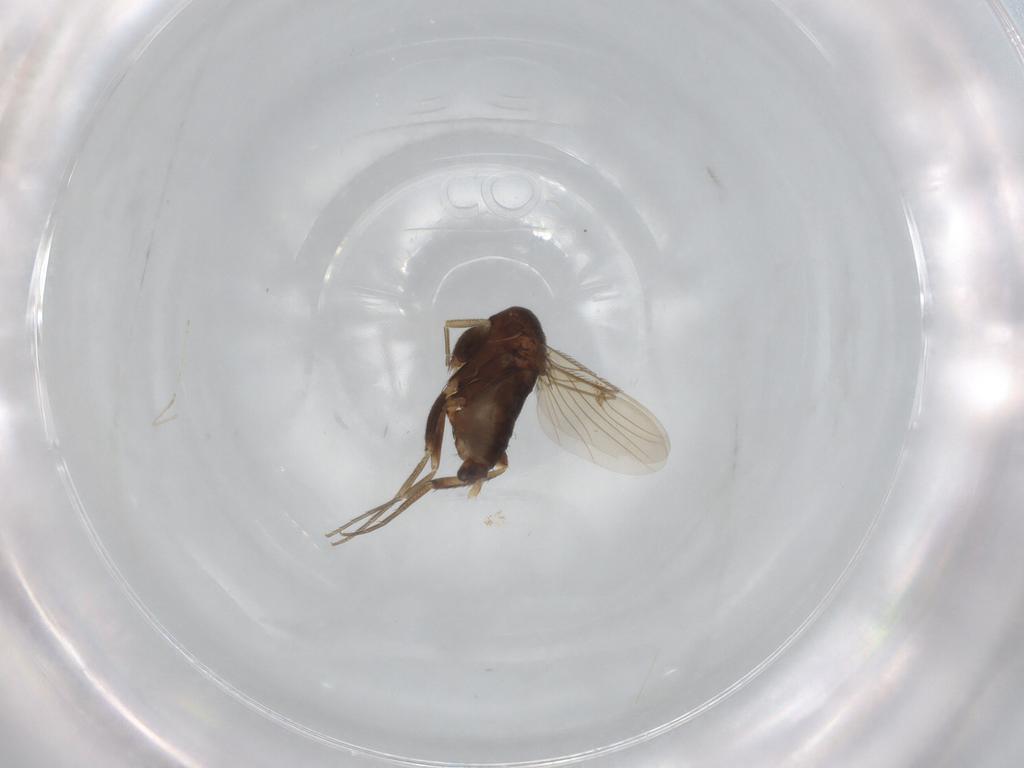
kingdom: Animalia
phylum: Arthropoda
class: Insecta
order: Diptera
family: Phoridae
